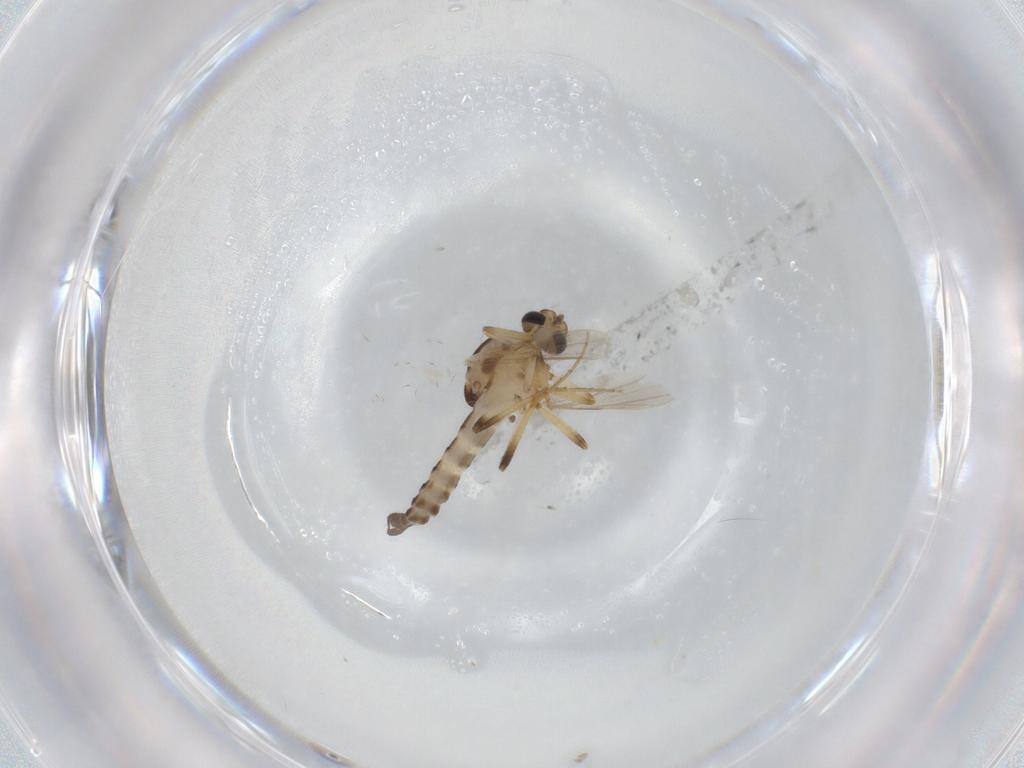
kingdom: Animalia
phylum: Arthropoda
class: Insecta
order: Diptera
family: Ceratopogonidae
